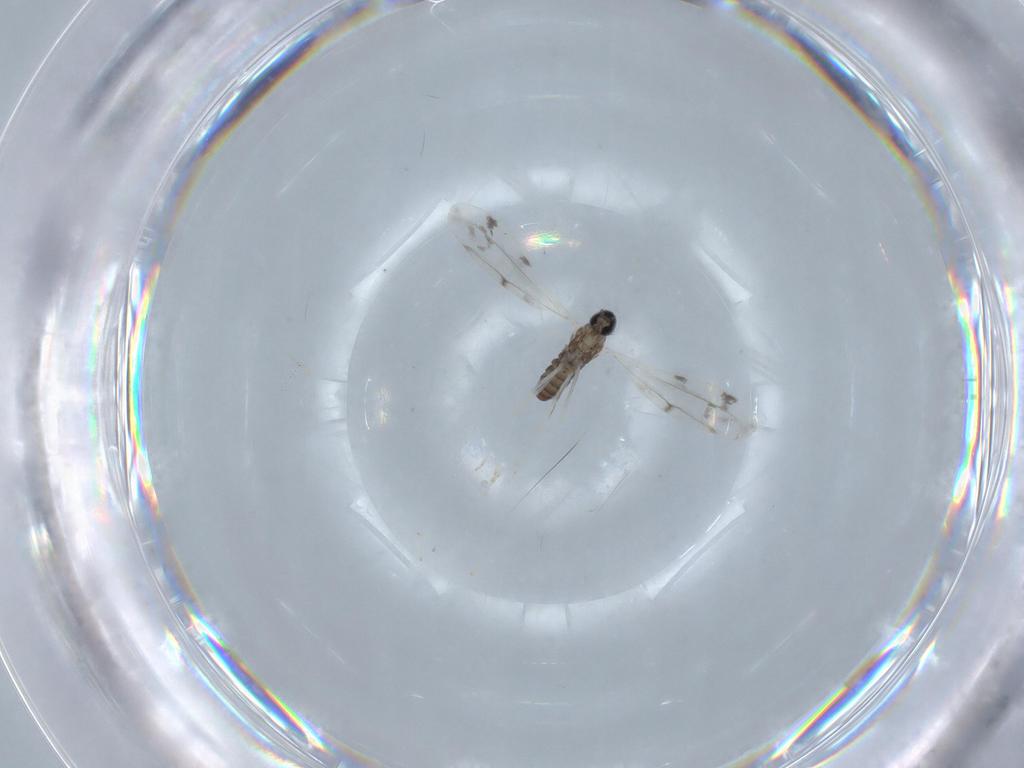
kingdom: Animalia
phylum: Arthropoda
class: Insecta
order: Diptera
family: Cecidomyiidae
